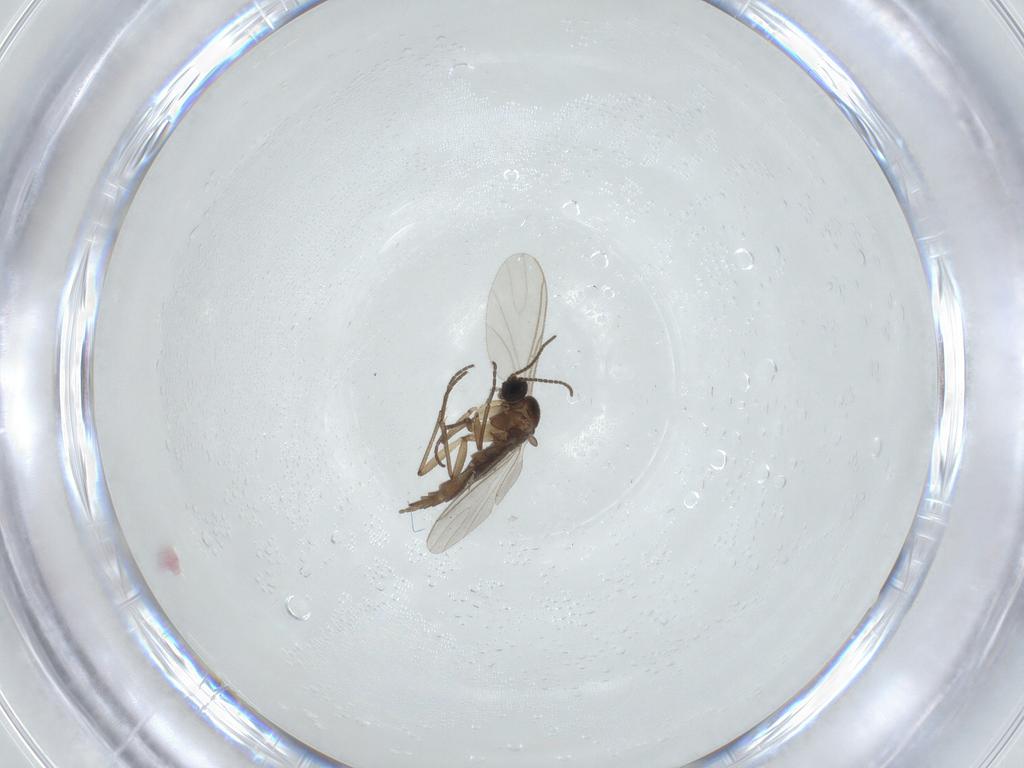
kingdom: Animalia
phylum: Arthropoda
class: Insecta
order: Diptera
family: Sciaridae
